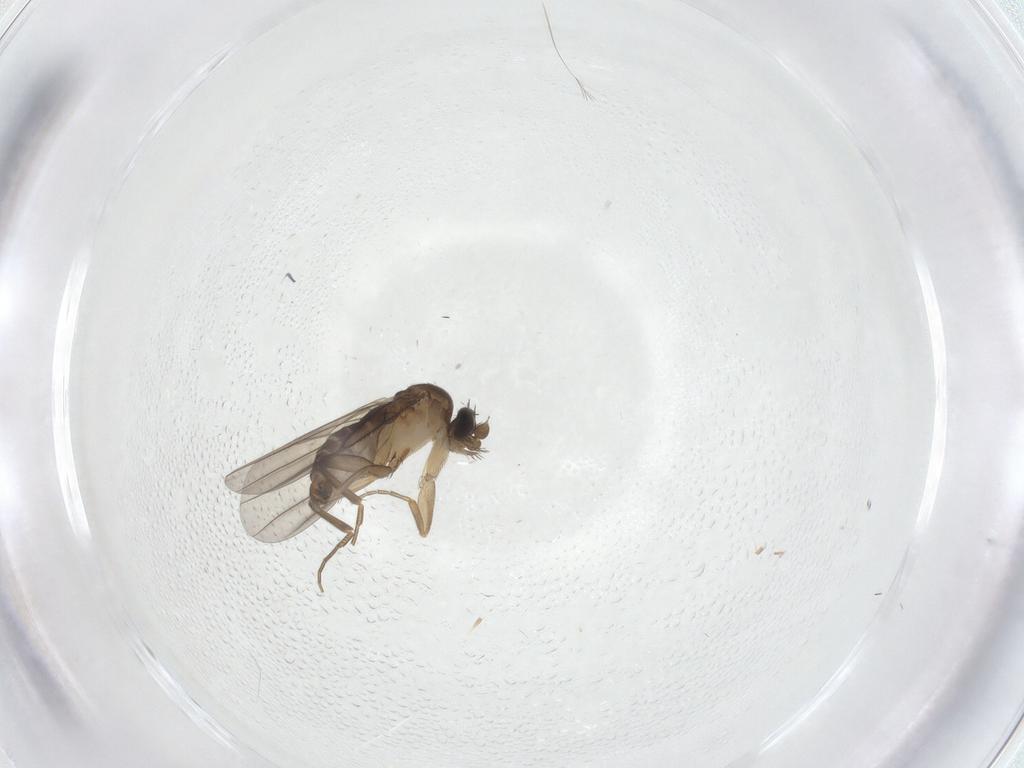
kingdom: Animalia
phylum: Arthropoda
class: Insecta
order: Diptera
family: Phoridae
